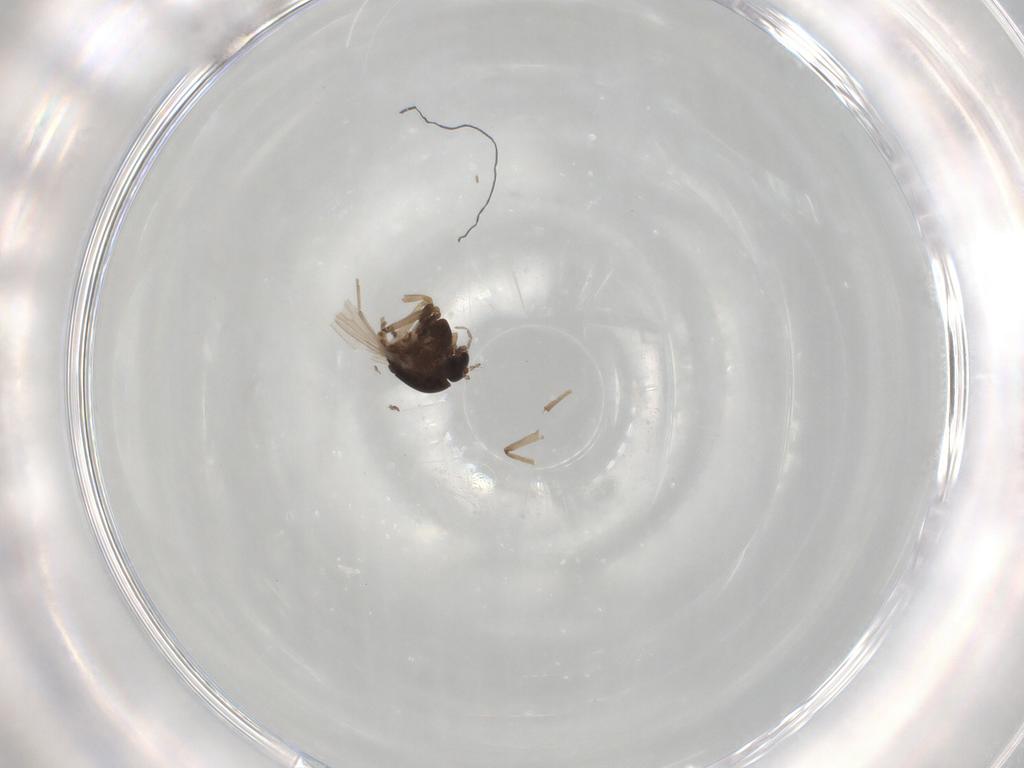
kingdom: Animalia
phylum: Arthropoda
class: Insecta
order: Diptera
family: Chironomidae
